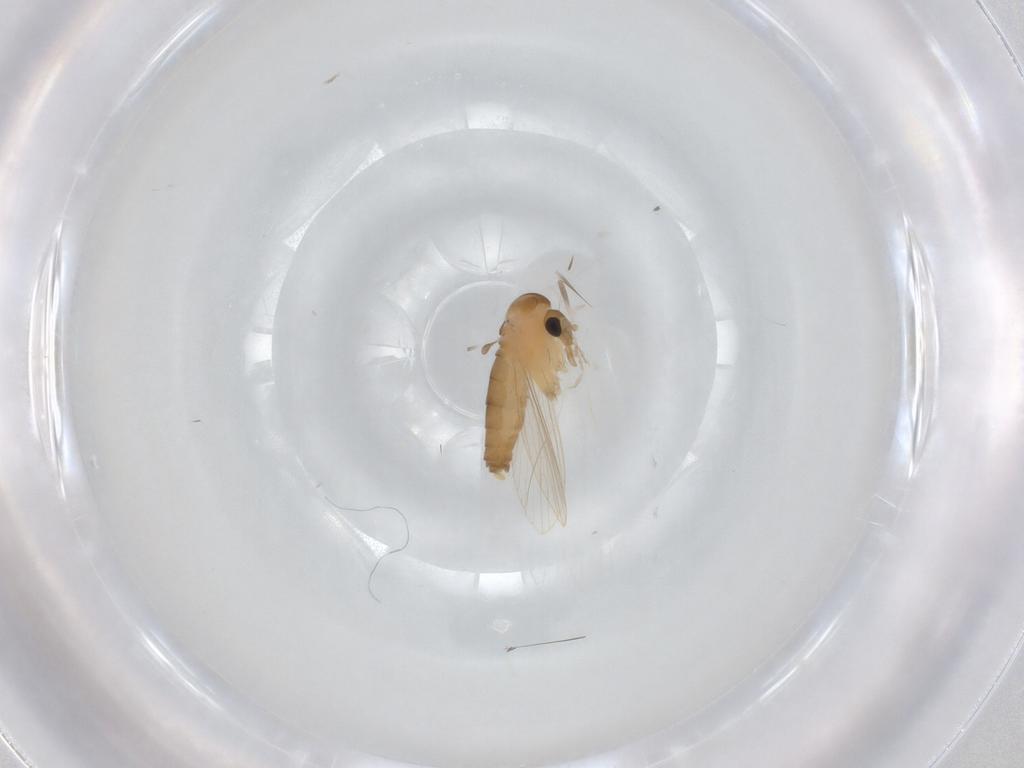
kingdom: Animalia
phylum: Arthropoda
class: Insecta
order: Diptera
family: Psychodidae
